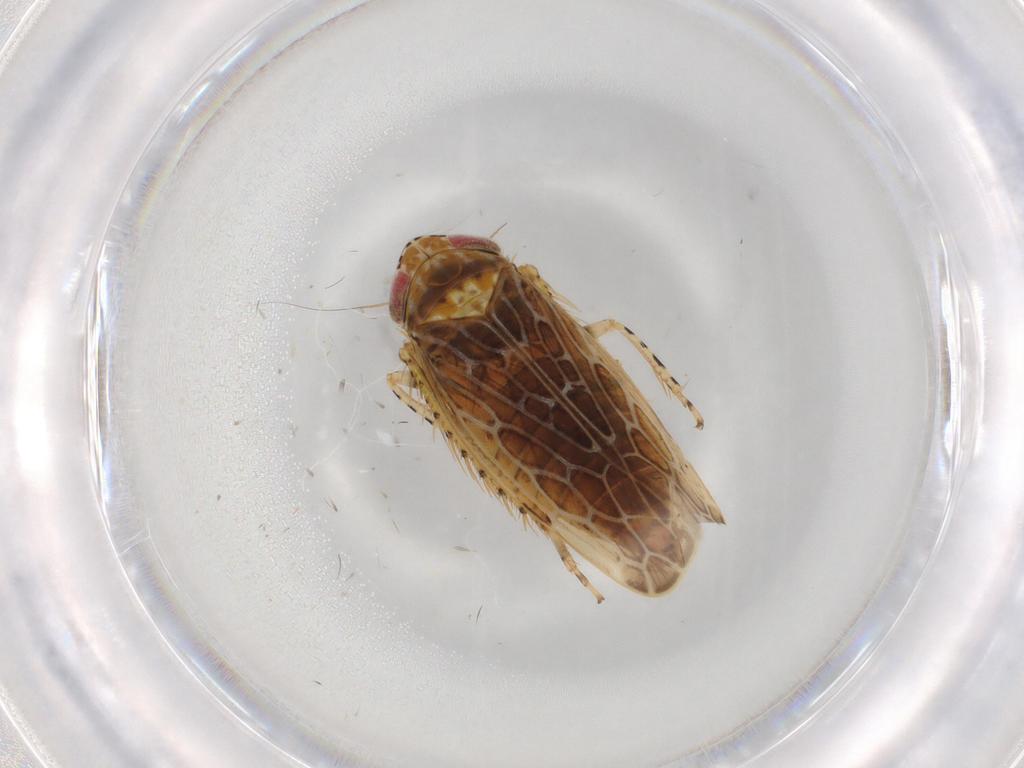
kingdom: Animalia
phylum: Arthropoda
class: Insecta
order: Hemiptera
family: Cicadellidae
